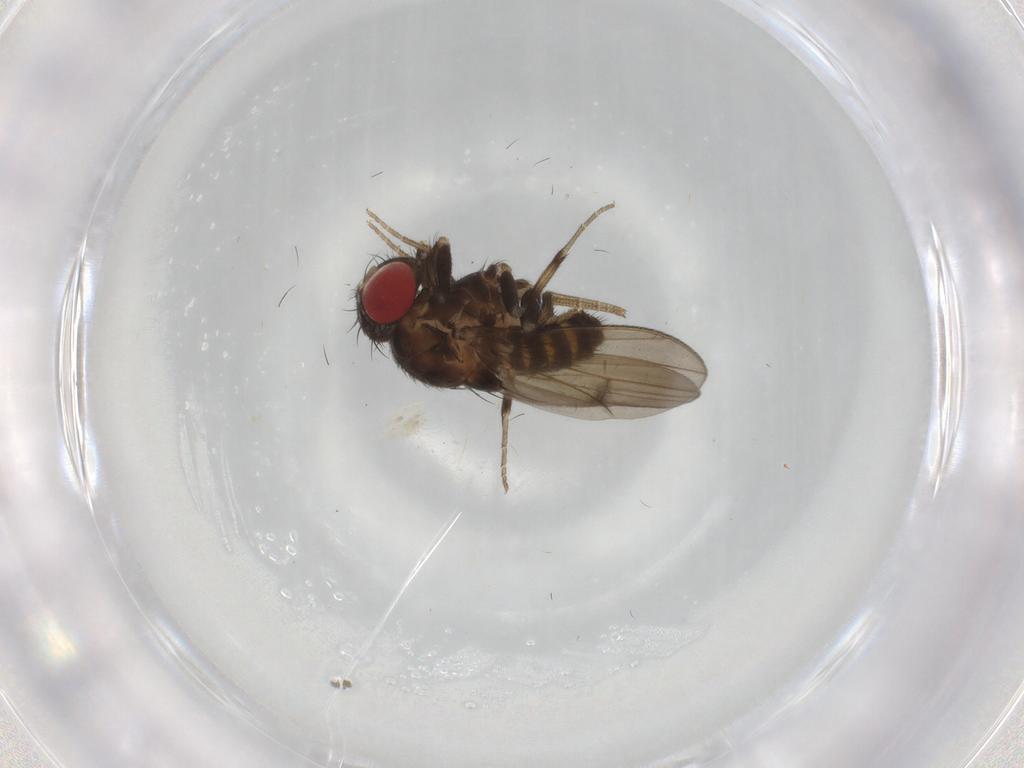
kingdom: Animalia
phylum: Arthropoda
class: Insecta
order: Diptera
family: Drosophilidae
